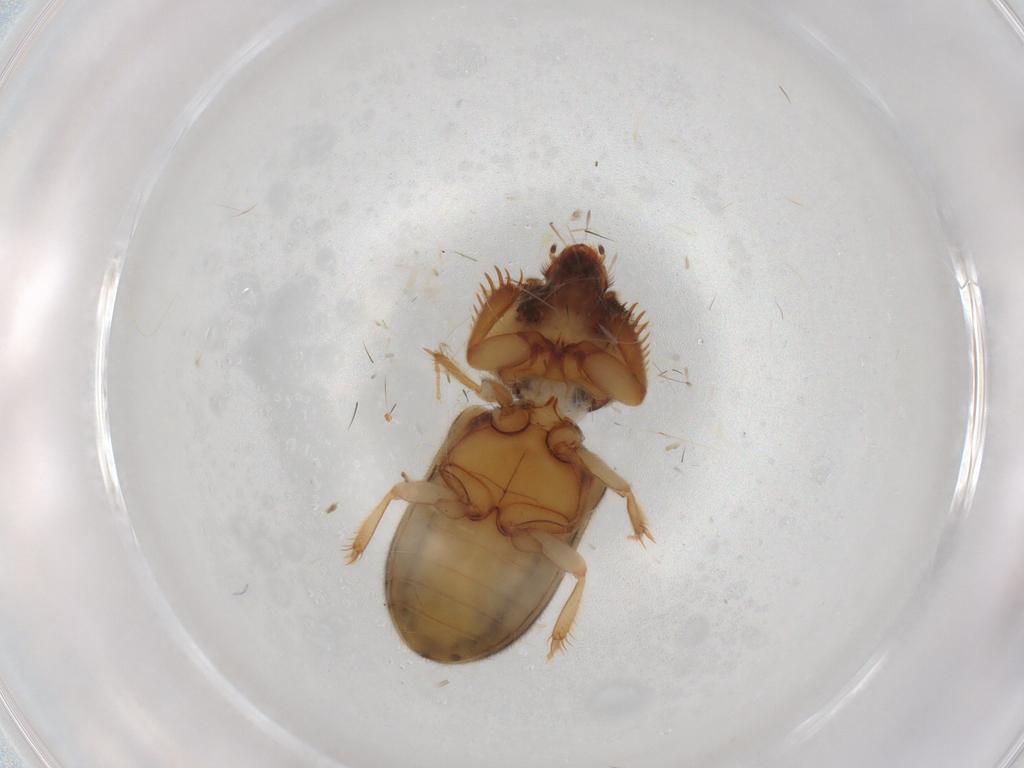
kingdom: Animalia
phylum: Arthropoda
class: Insecta
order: Coleoptera
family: Heteroceridae
